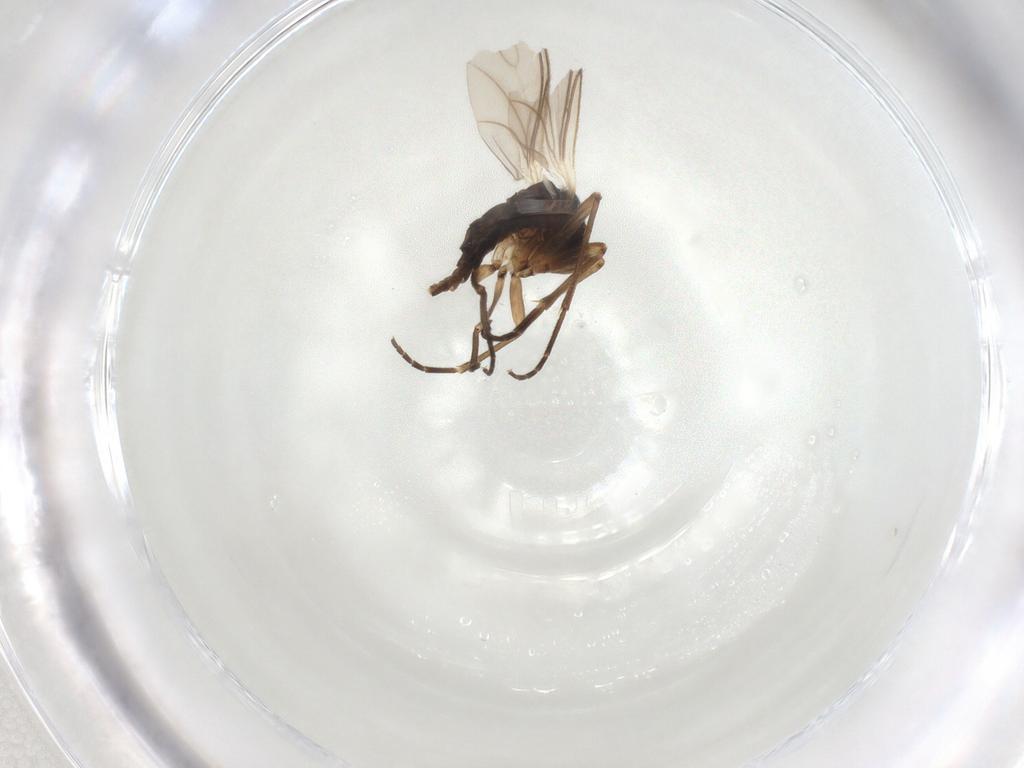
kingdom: Animalia
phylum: Arthropoda
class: Insecta
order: Diptera
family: Sciaridae
